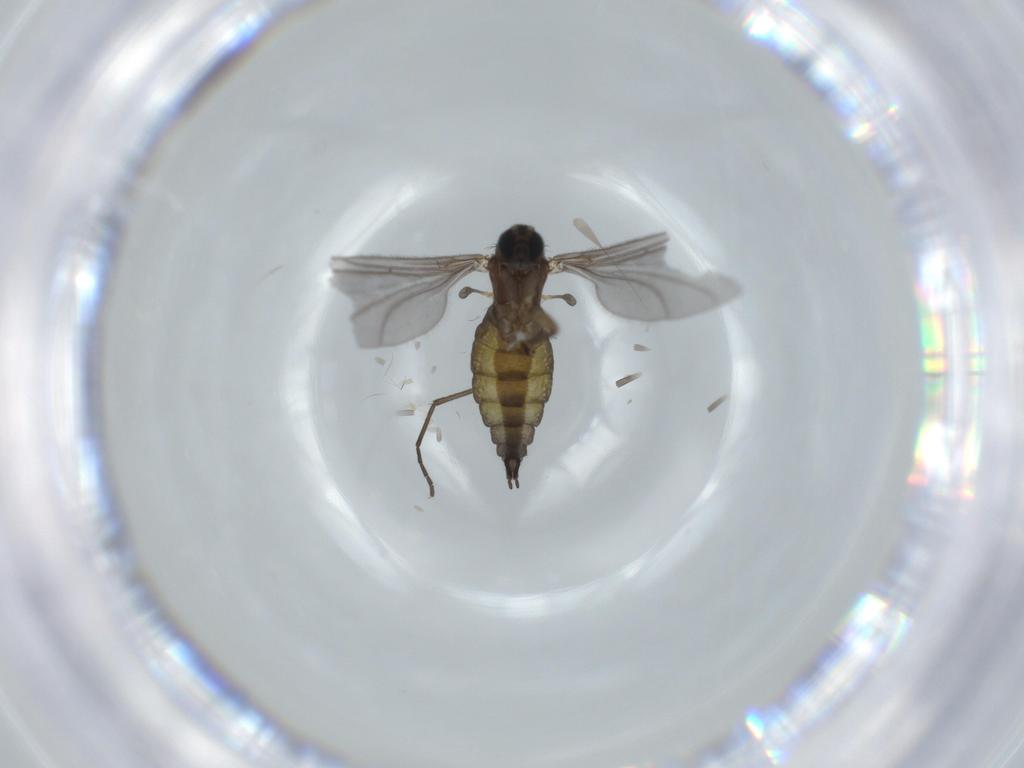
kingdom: Animalia
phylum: Arthropoda
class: Insecta
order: Diptera
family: Sciaridae
